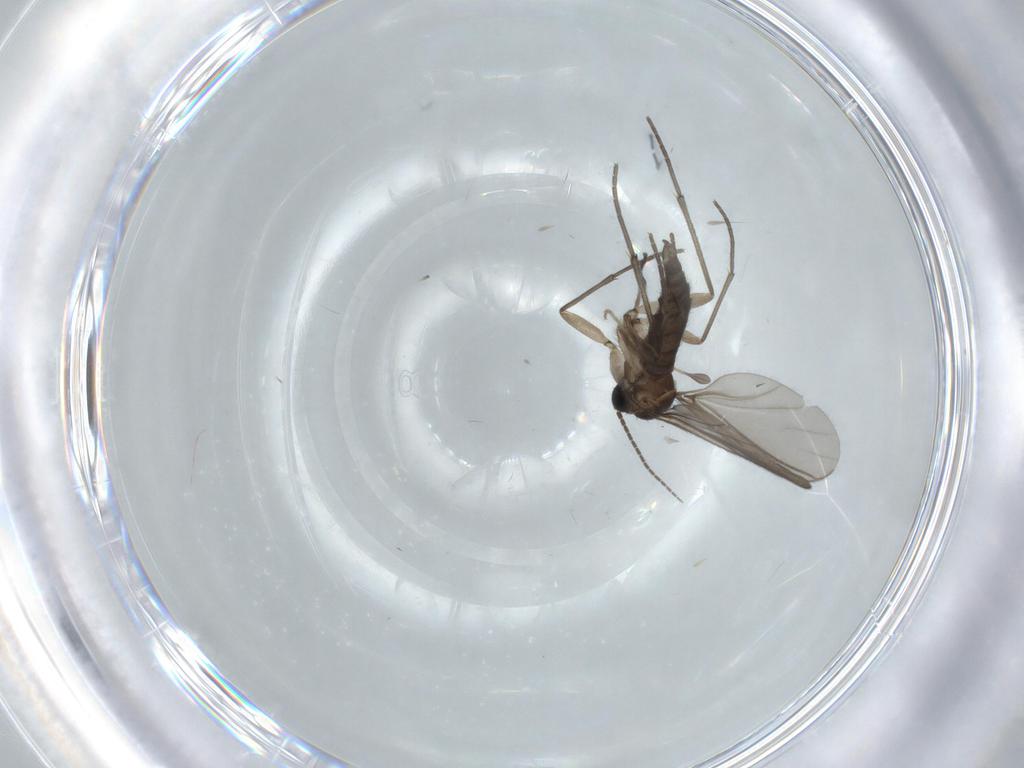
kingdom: Animalia
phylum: Arthropoda
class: Insecta
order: Diptera
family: Sciaridae
